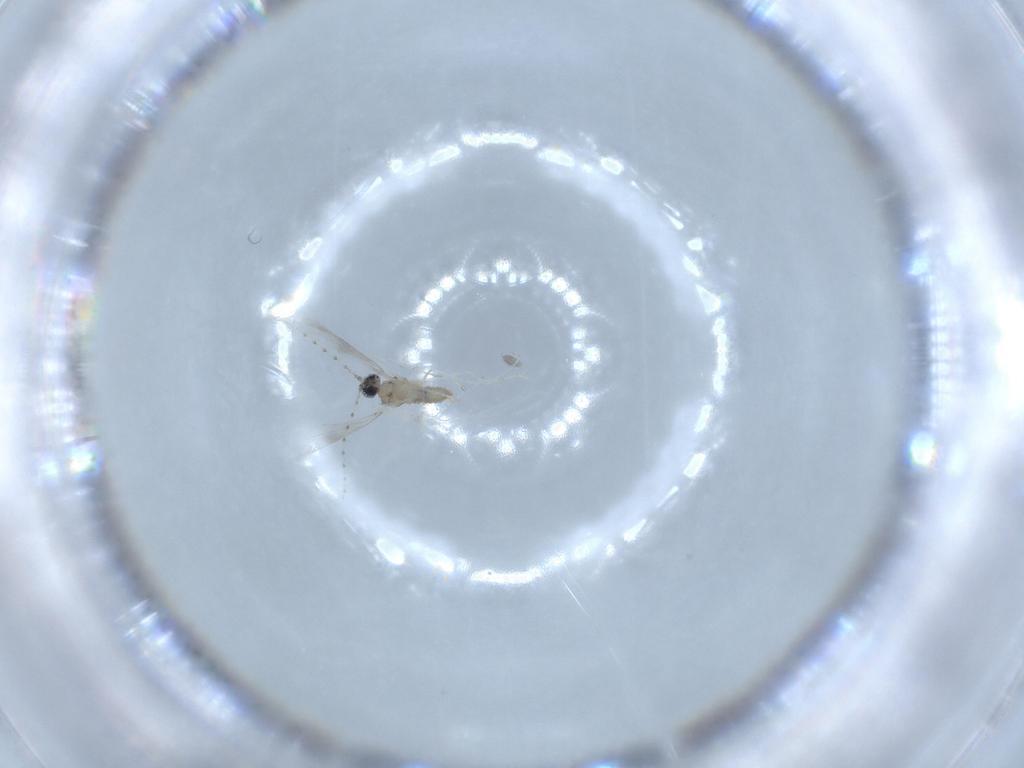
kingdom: Animalia
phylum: Arthropoda
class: Insecta
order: Diptera
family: Cecidomyiidae
